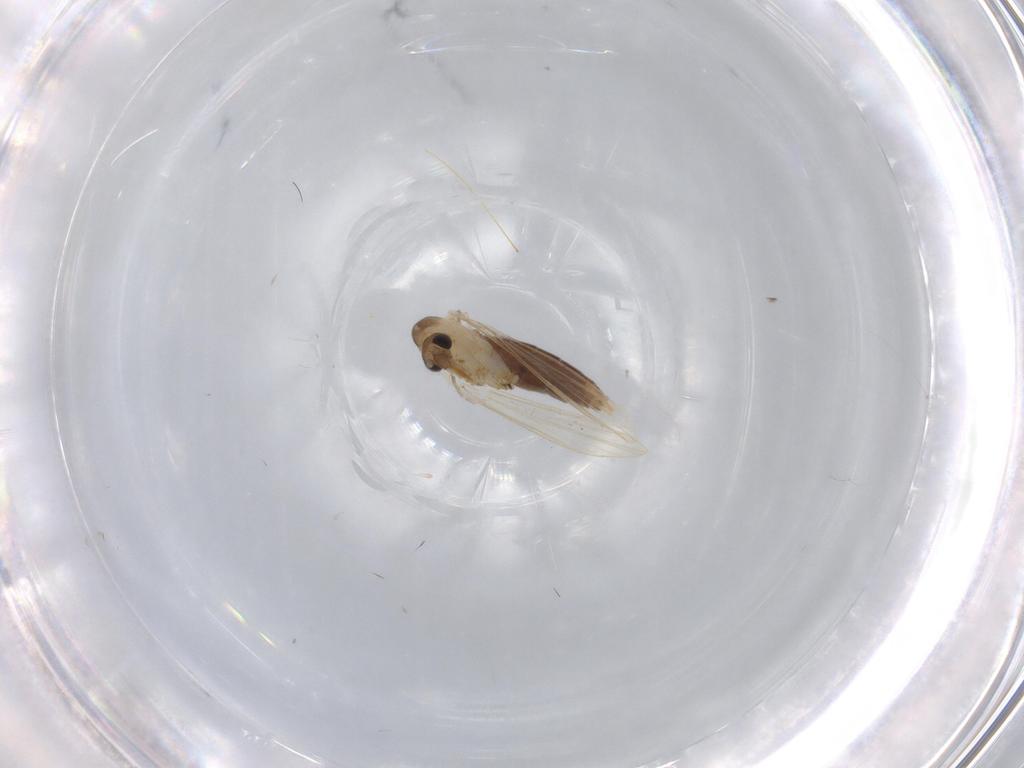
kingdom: Animalia
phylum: Arthropoda
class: Insecta
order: Diptera
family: Psychodidae
